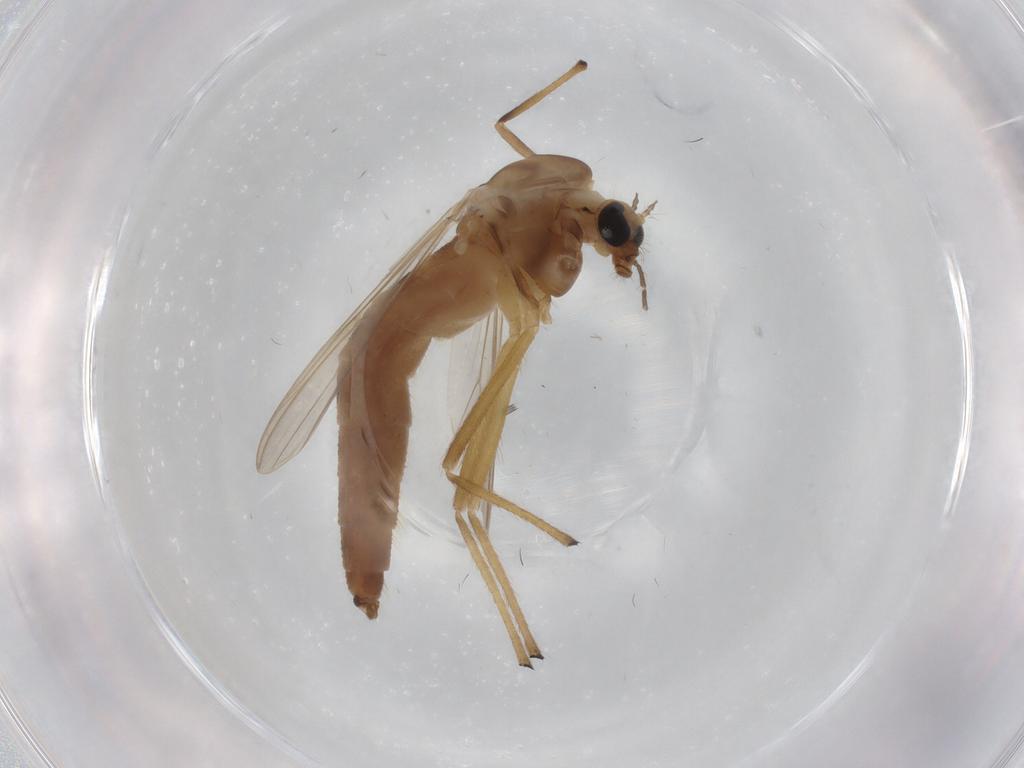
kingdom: Animalia
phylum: Arthropoda
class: Insecta
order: Diptera
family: Chironomidae
